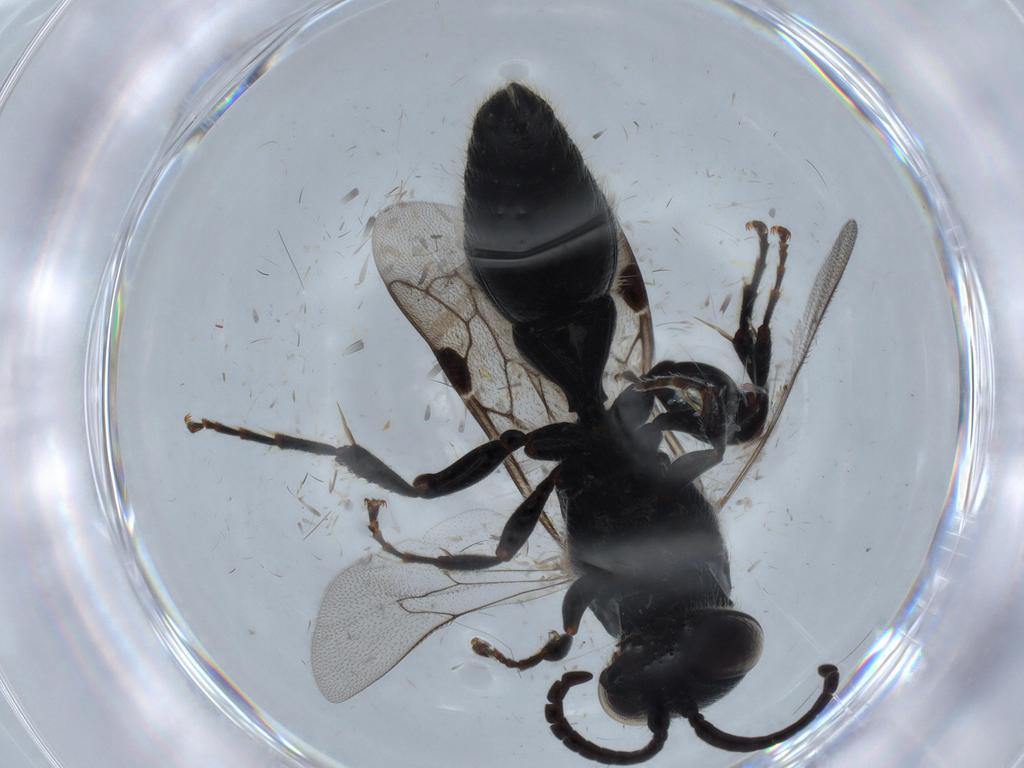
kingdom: Animalia
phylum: Arthropoda
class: Insecta
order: Hymenoptera
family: Tiphiidae
